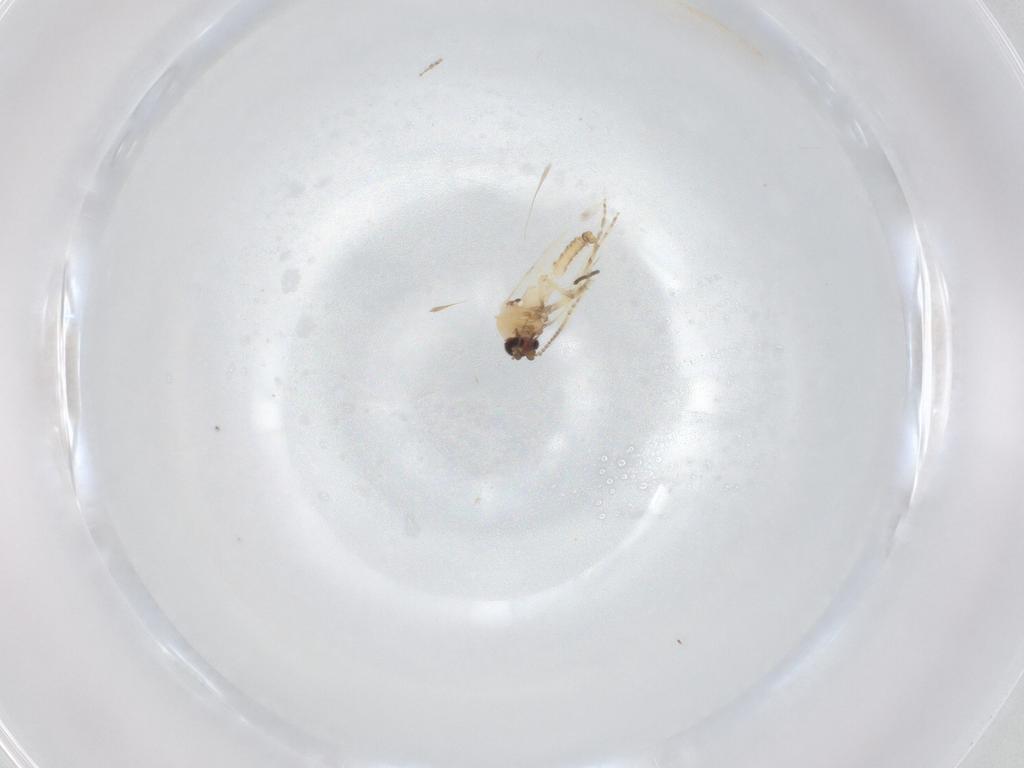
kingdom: Animalia
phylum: Arthropoda
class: Insecta
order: Diptera
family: Ceratopogonidae
